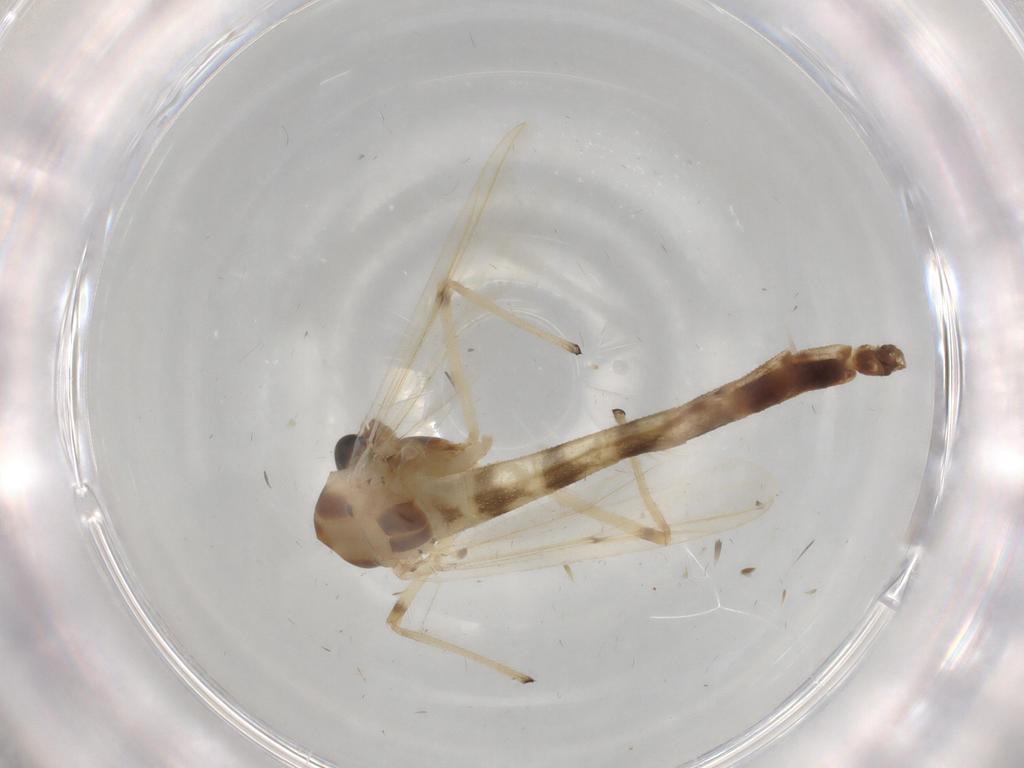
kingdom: Animalia
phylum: Arthropoda
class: Insecta
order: Diptera
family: Chironomidae
